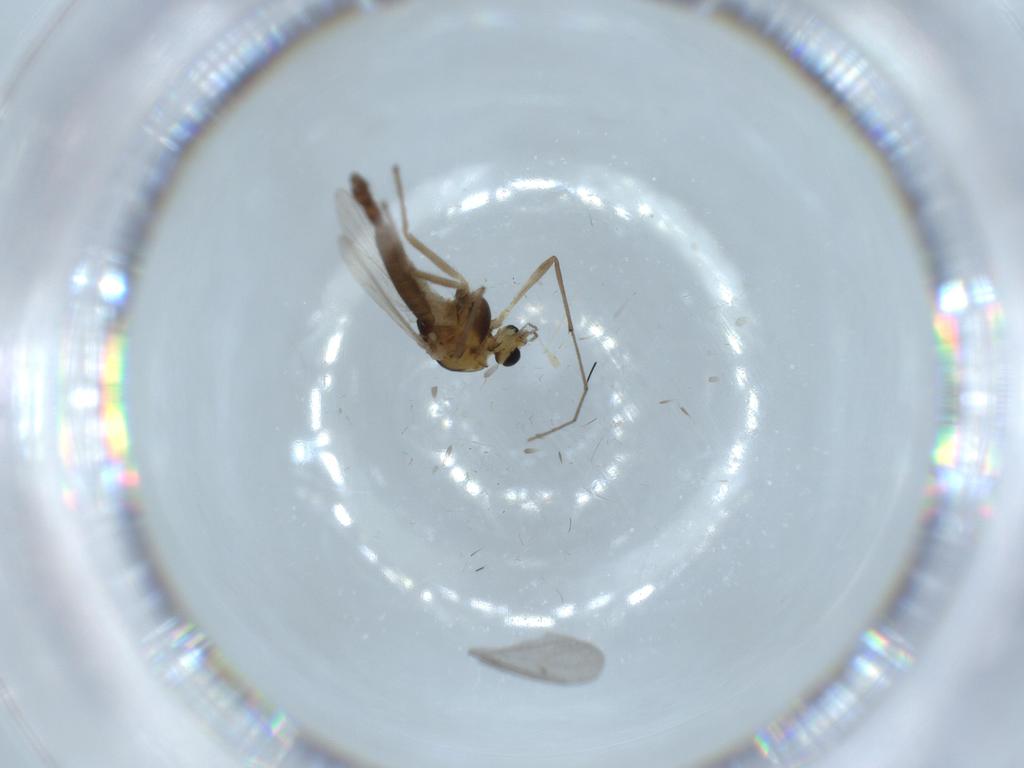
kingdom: Animalia
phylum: Arthropoda
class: Insecta
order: Diptera
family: Chironomidae
